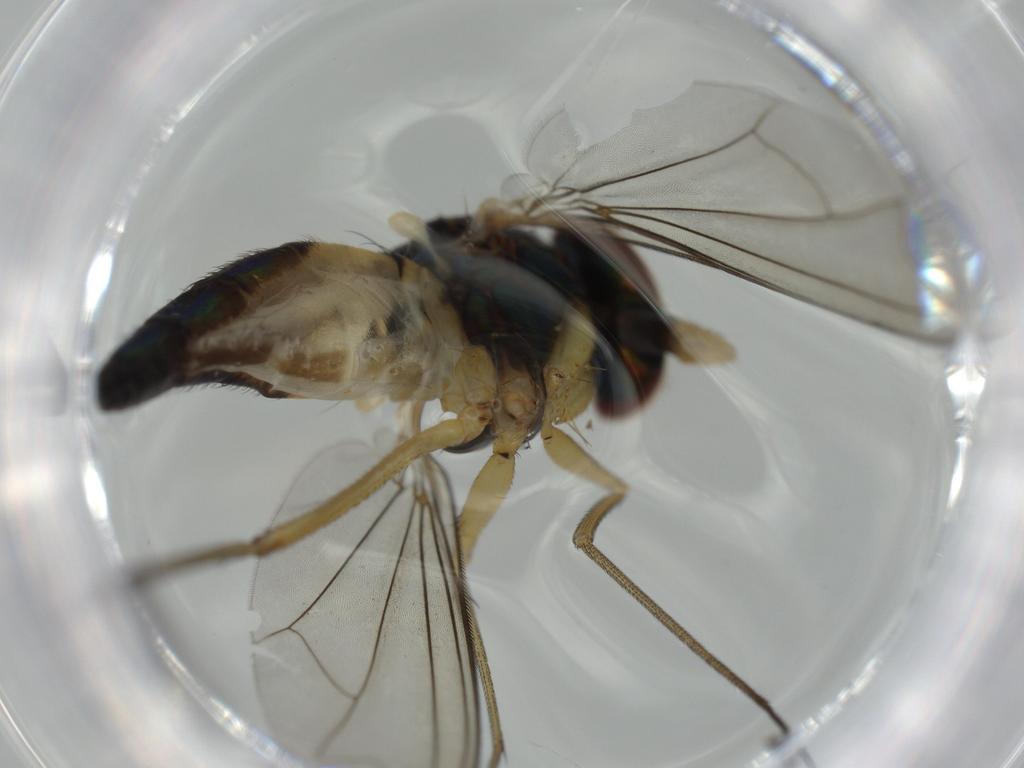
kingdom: Animalia
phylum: Arthropoda
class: Insecta
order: Diptera
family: Dolichopodidae
